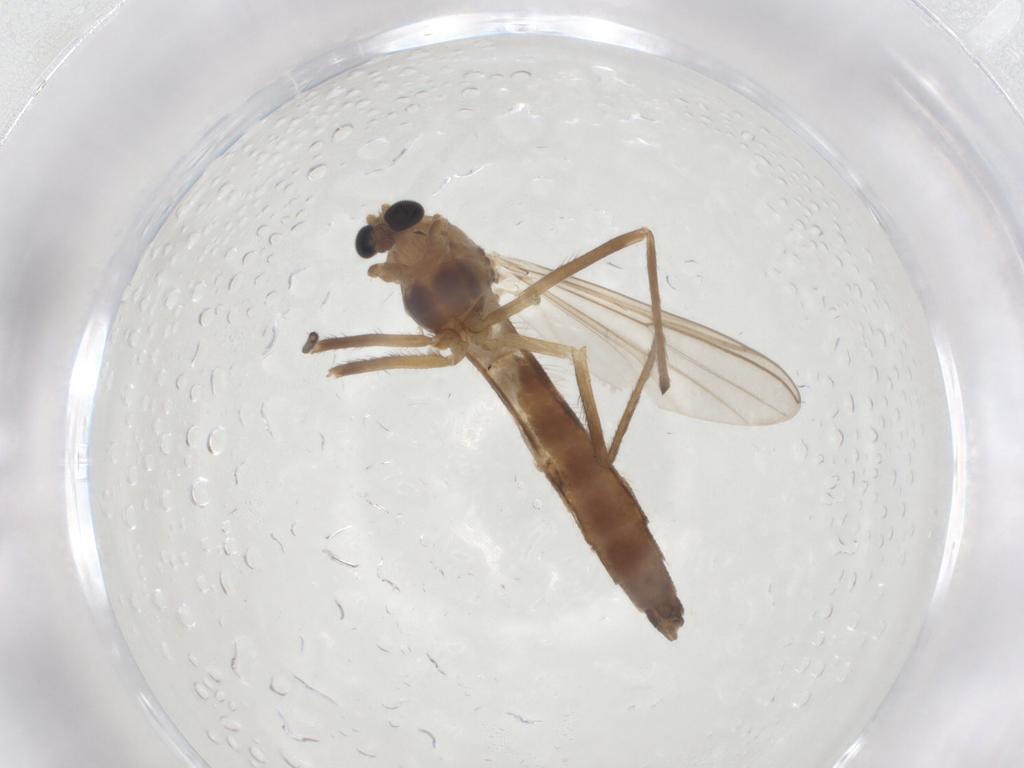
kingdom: Animalia
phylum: Arthropoda
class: Insecta
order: Diptera
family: Chironomidae
